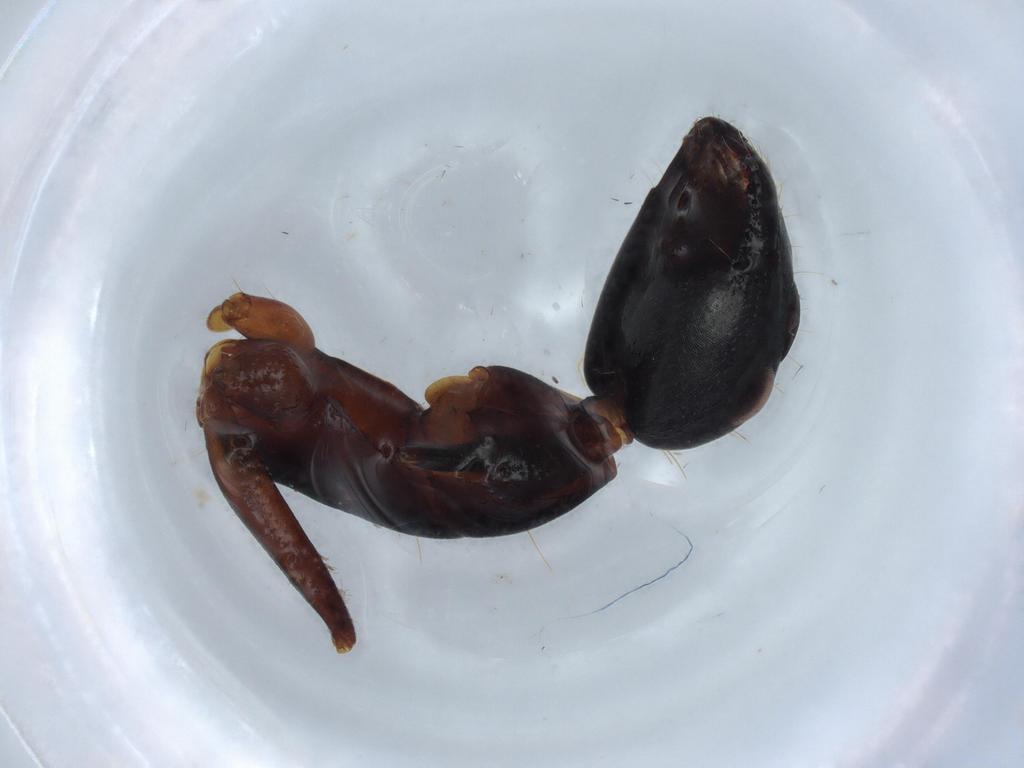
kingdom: Animalia
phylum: Arthropoda
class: Insecta
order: Hymenoptera
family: Trichogrammatidae
